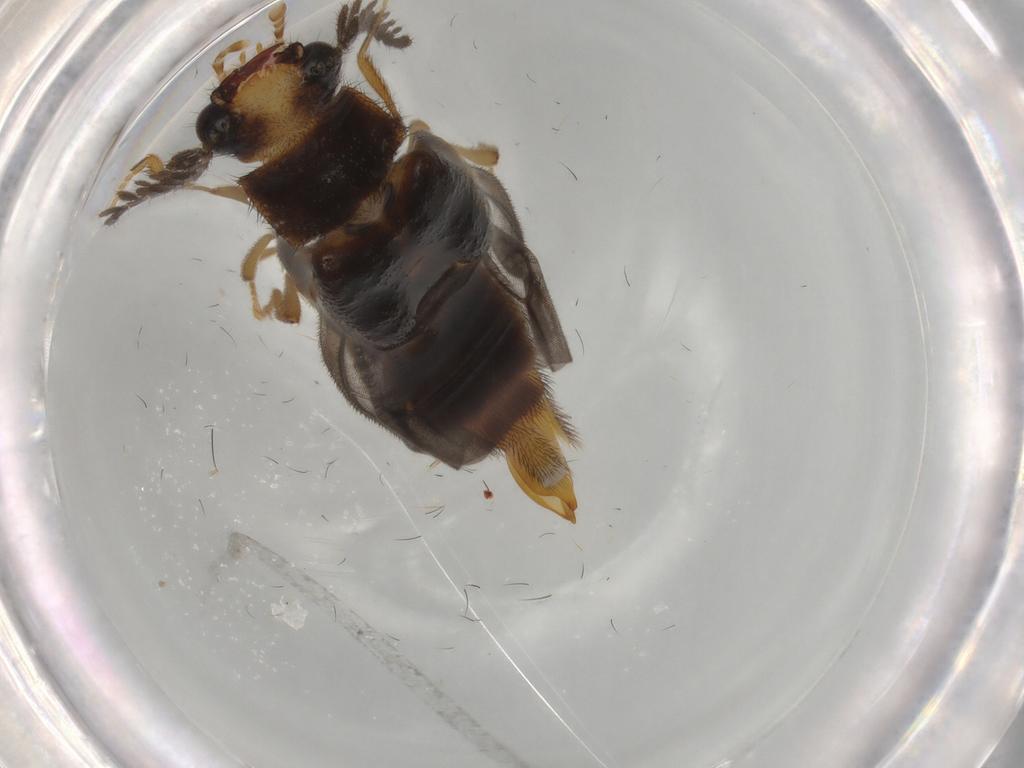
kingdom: Animalia
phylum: Arthropoda
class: Insecta
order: Coleoptera
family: Phengodidae
